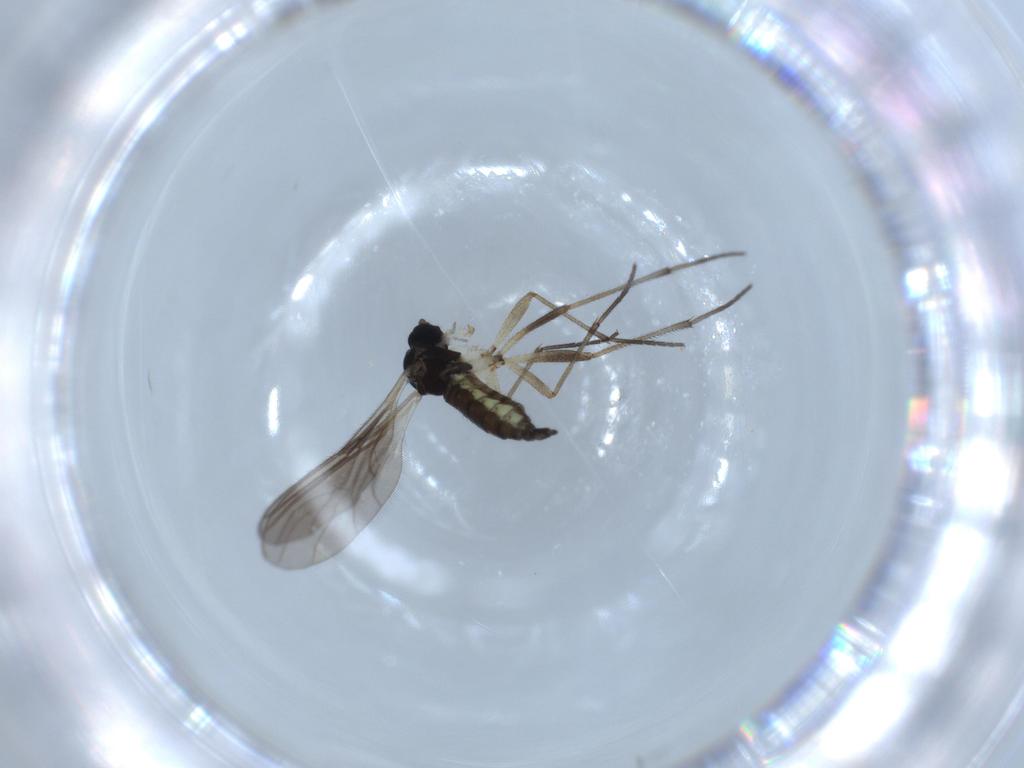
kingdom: Animalia
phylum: Arthropoda
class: Insecta
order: Diptera
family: Sciaridae
